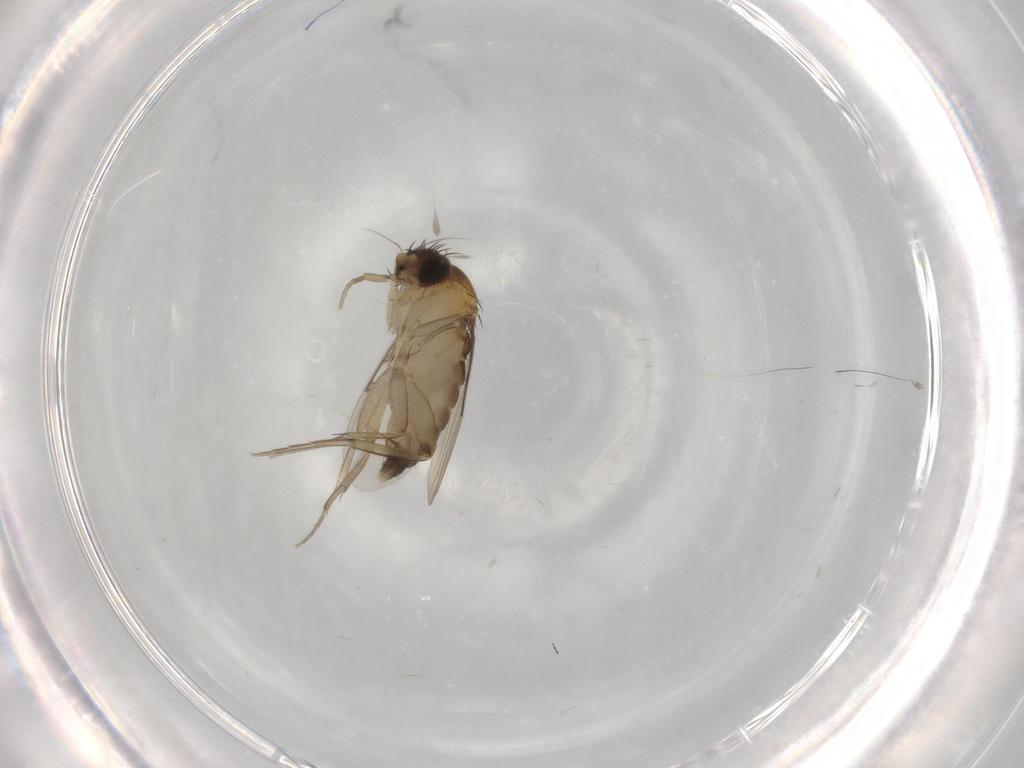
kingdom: Animalia
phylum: Arthropoda
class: Insecta
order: Diptera
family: Phoridae
